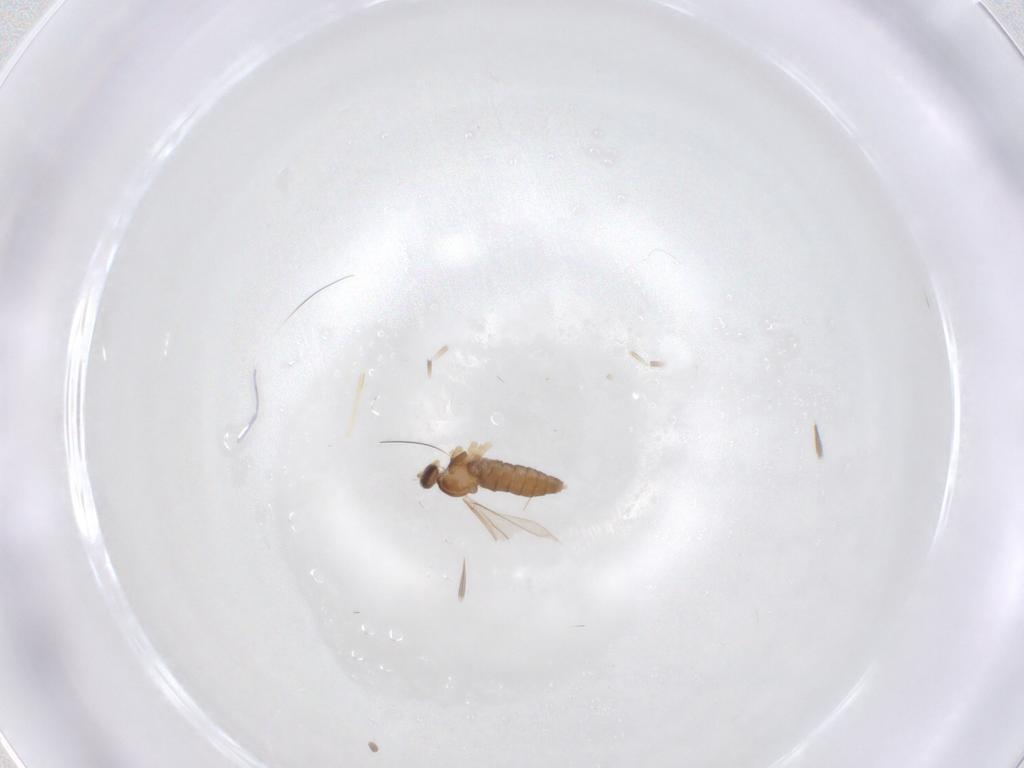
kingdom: Animalia
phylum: Arthropoda
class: Insecta
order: Diptera
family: Cecidomyiidae
